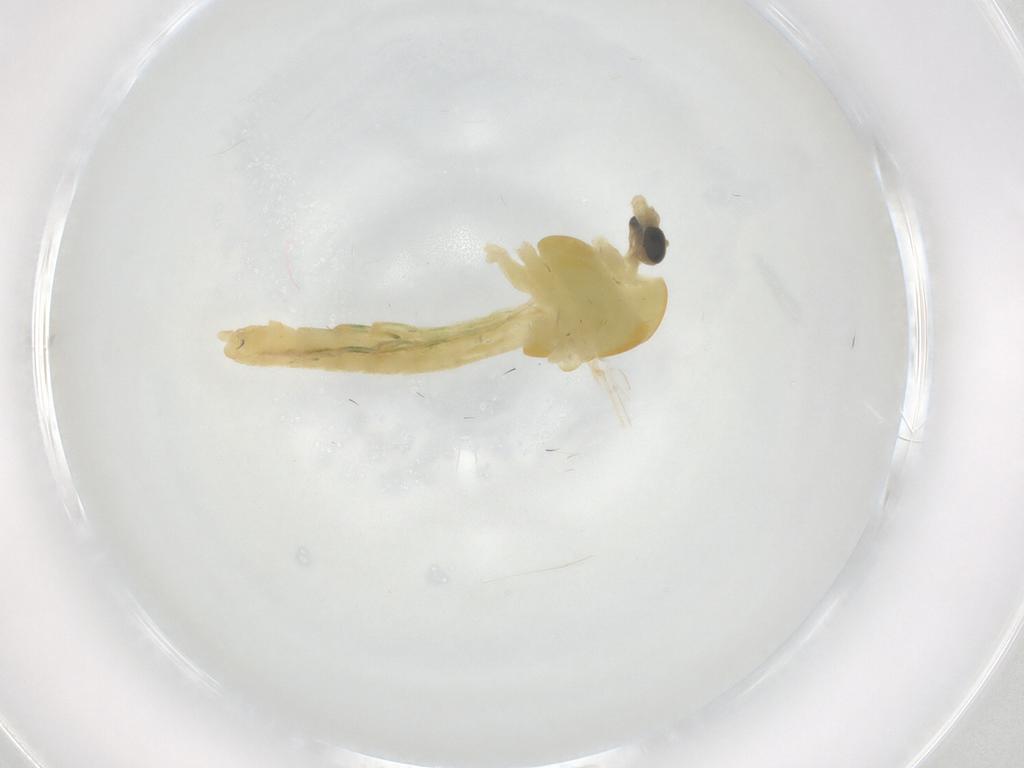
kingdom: Animalia
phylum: Arthropoda
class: Insecta
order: Diptera
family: Chironomidae
